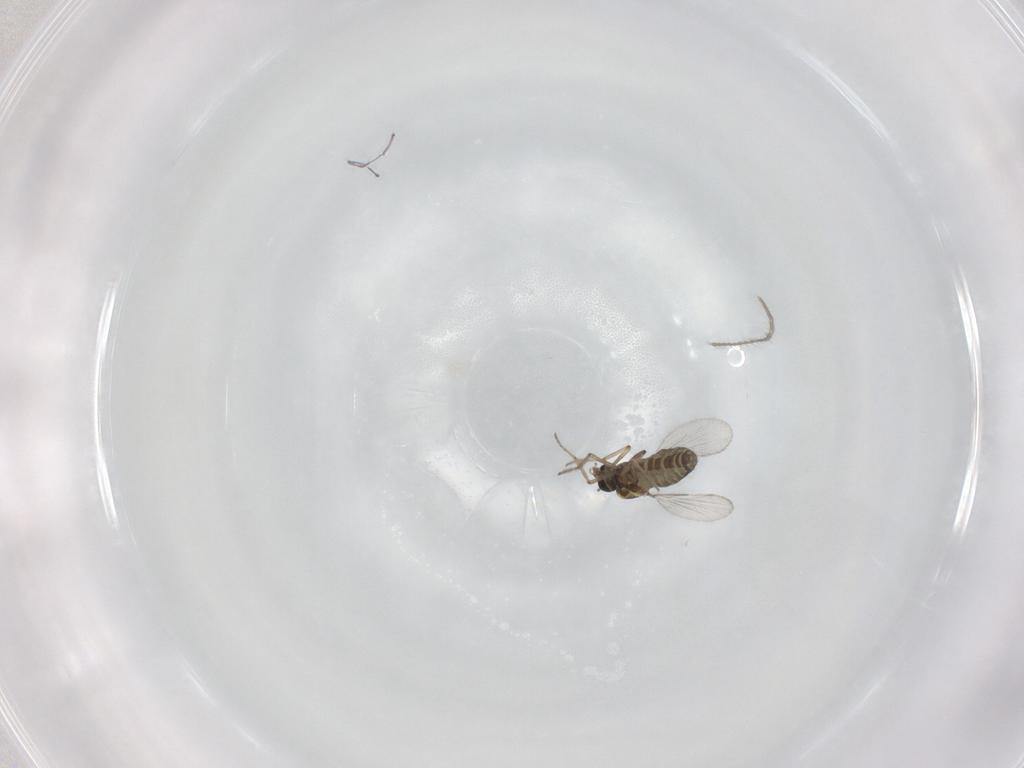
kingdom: Animalia
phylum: Arthropoda
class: Insecta
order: Diptera
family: Ceratopogonidae
